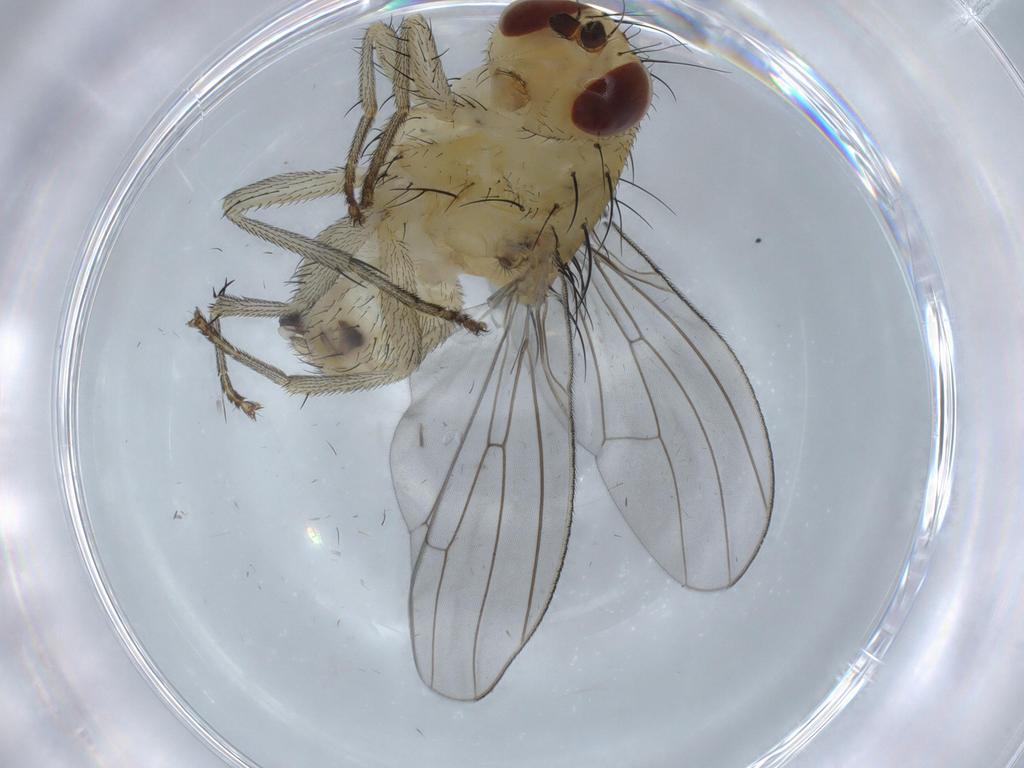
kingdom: Animalia
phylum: Arthropoda
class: Insecta
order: Diptera
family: Lauxaniidae
